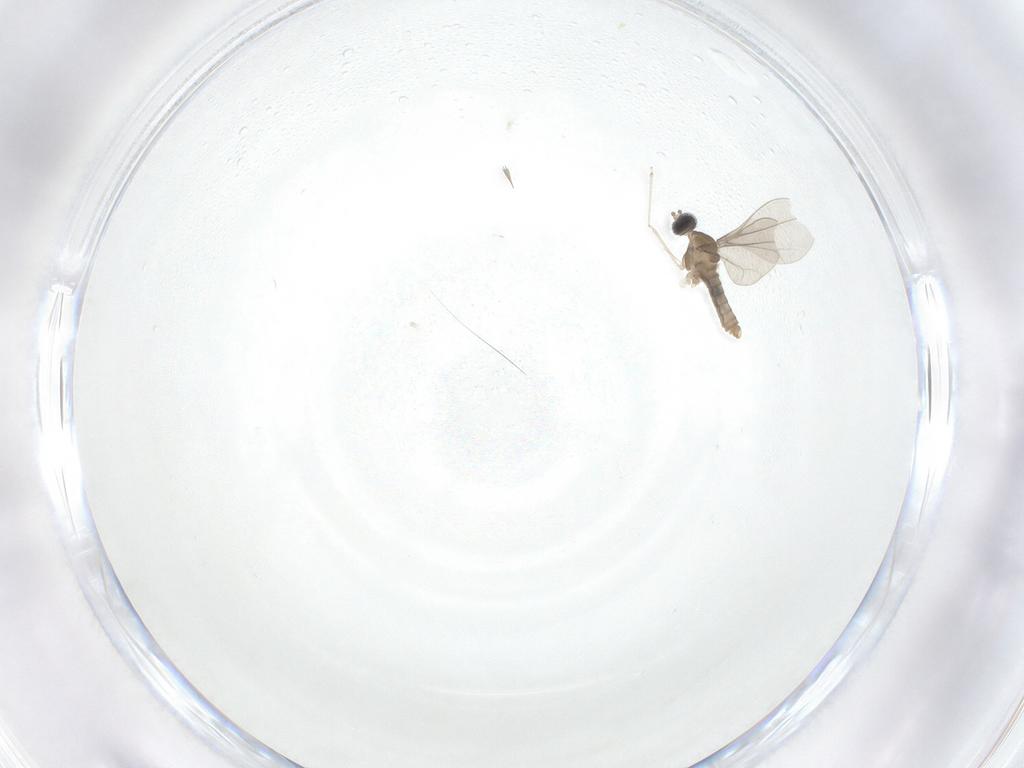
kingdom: Animalia
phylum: Arthropoda
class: Insecta
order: Diptera
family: Cecidomyiidae
